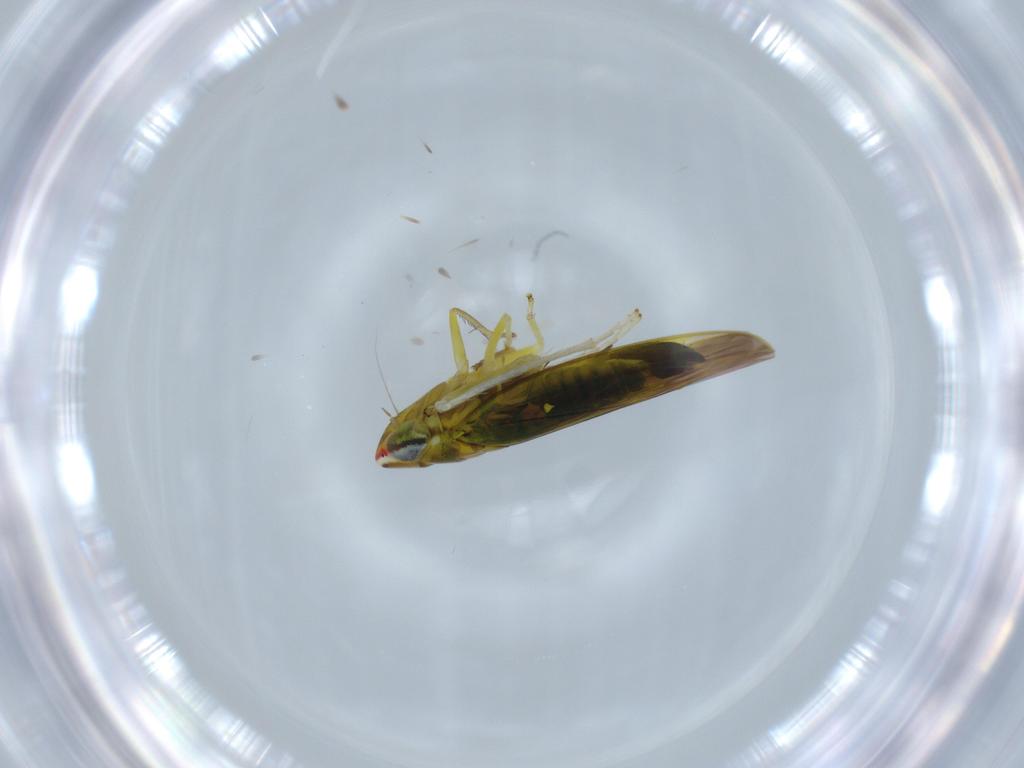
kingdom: Animalia
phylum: Arthropoda
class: Insecta
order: Hemiptera
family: Cicadellidae
